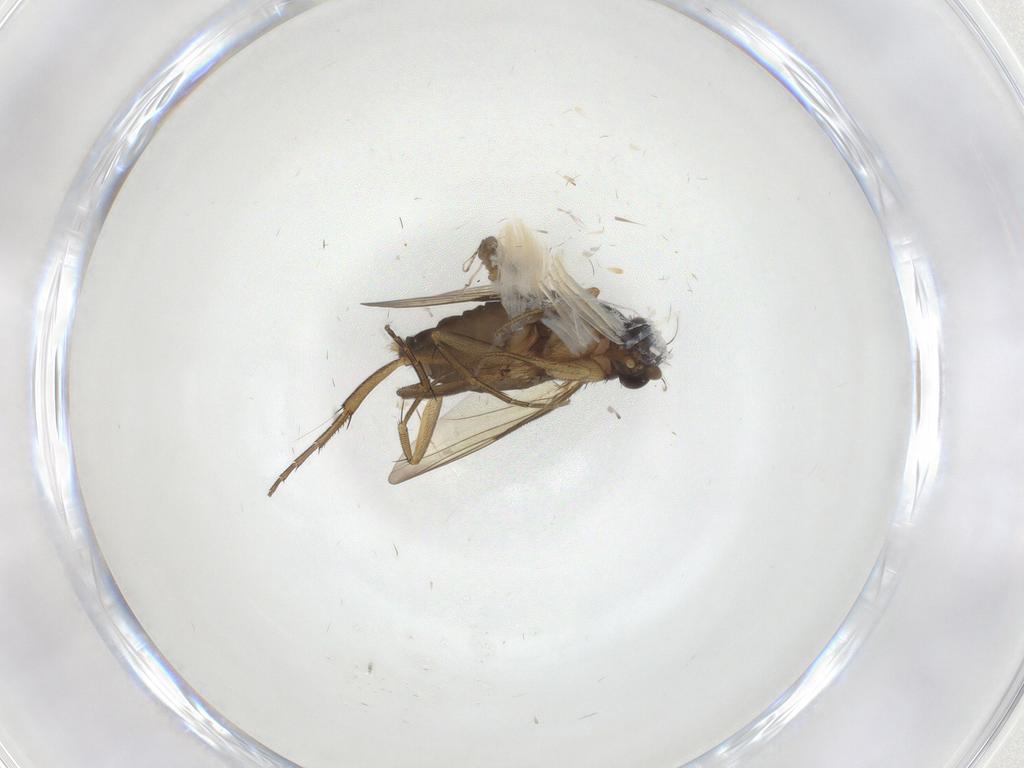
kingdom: Animalia
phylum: Arthropoda
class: Insecta
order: Diptera
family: Phoridae
